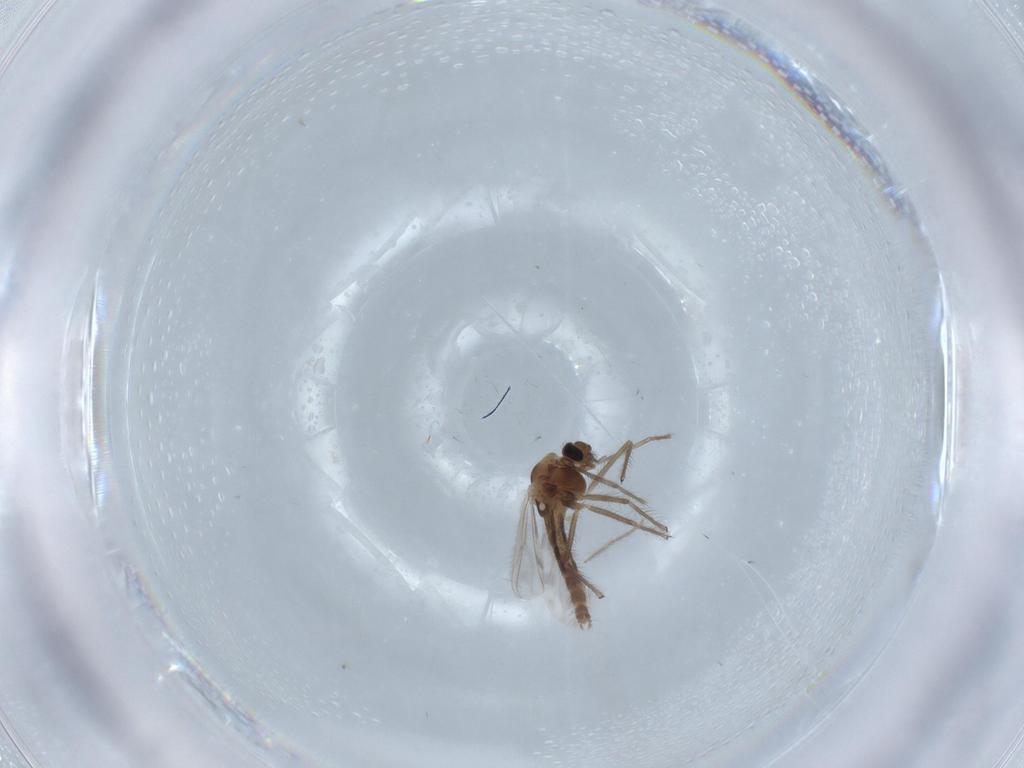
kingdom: Animalia
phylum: Arthropoda
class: Insecta
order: Diptera
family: Chironomidae
